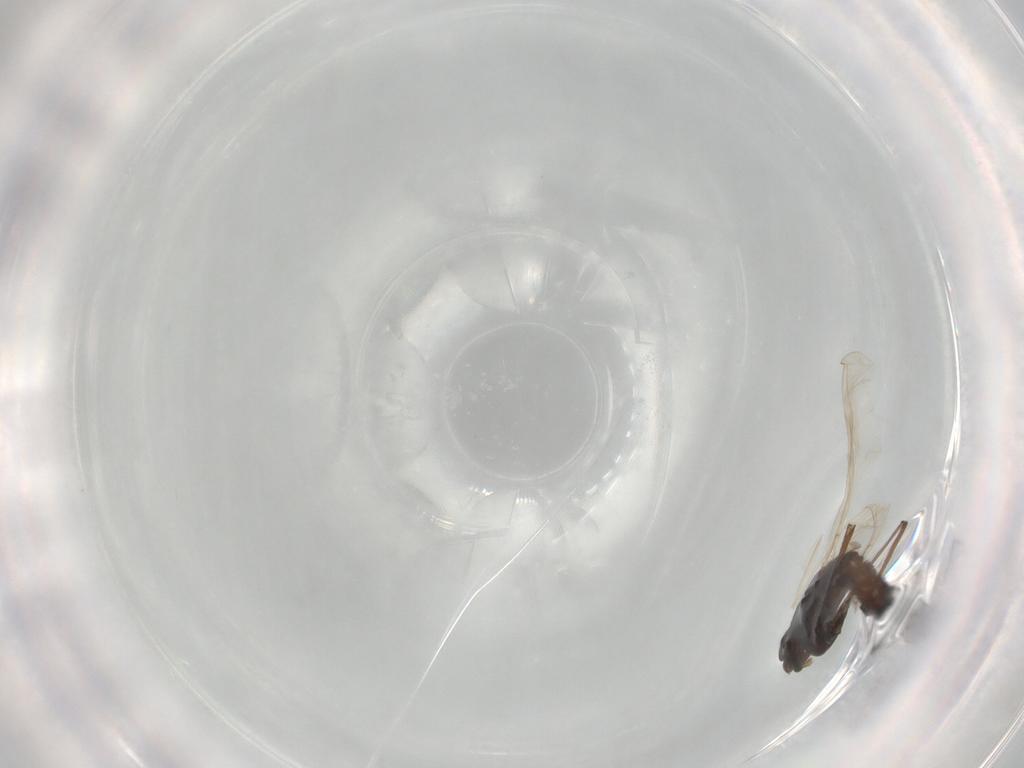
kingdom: Animalia
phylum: Arthropoda
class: Insecta
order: Diptera
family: Chironomidae
